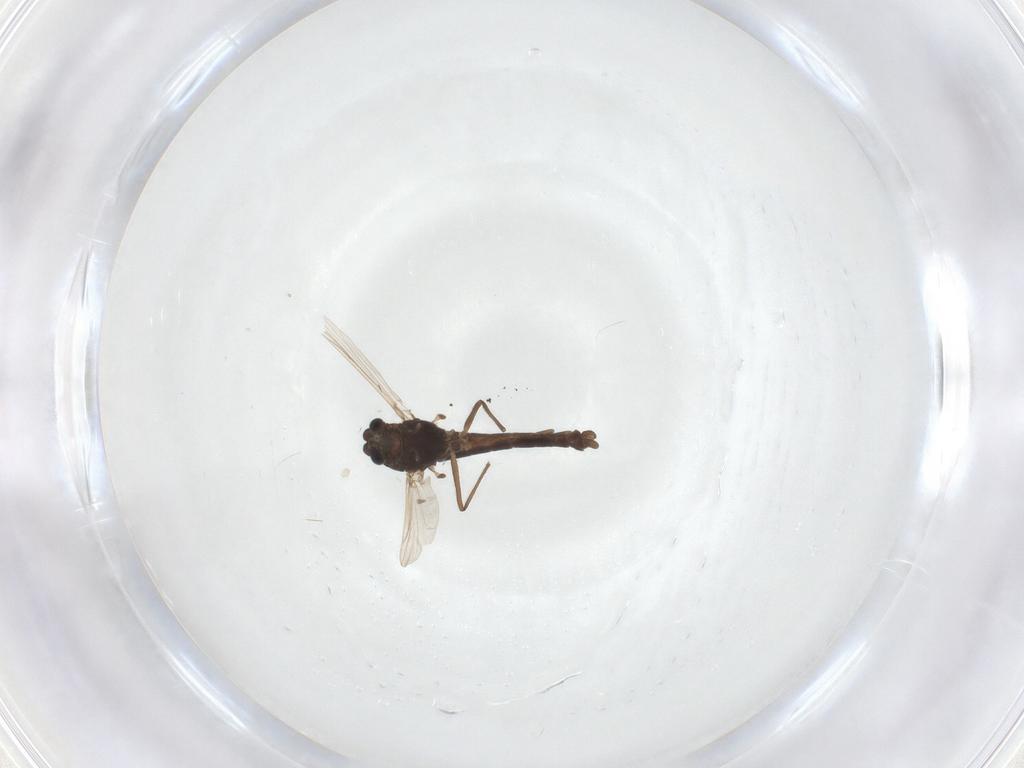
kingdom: Animalia
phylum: Arthropoda
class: Insecta
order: Diptera
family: Chironomidae
